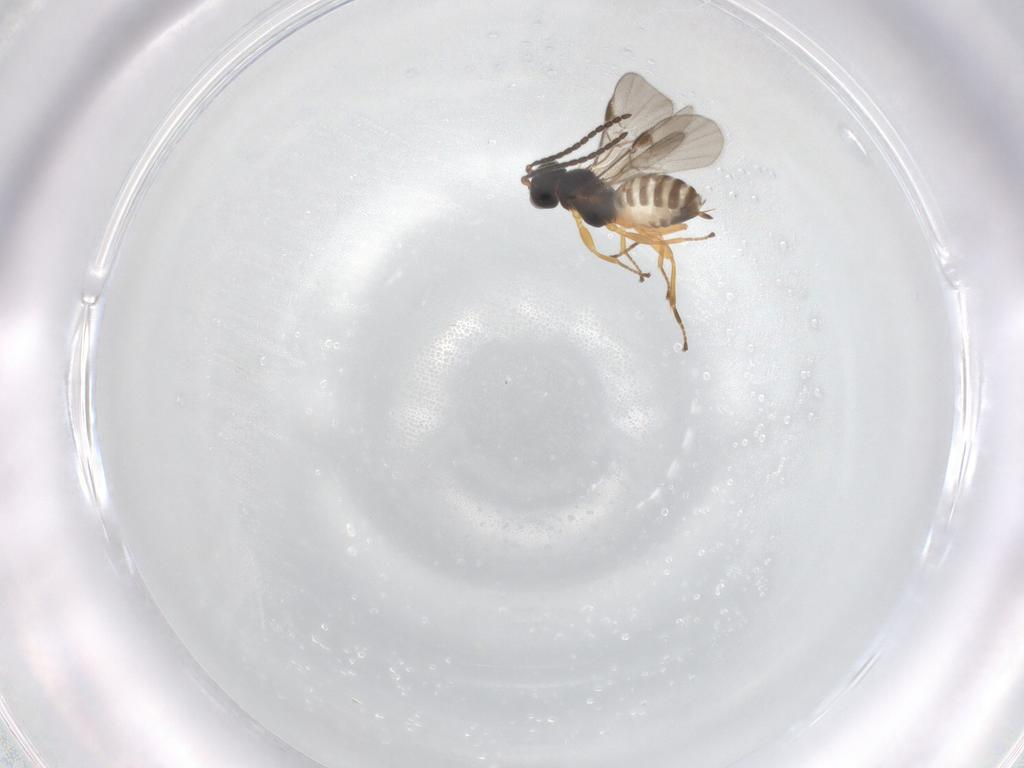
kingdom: Animalia
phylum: Arthropoda
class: Insecta
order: Hymenoptera
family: Braconidae
